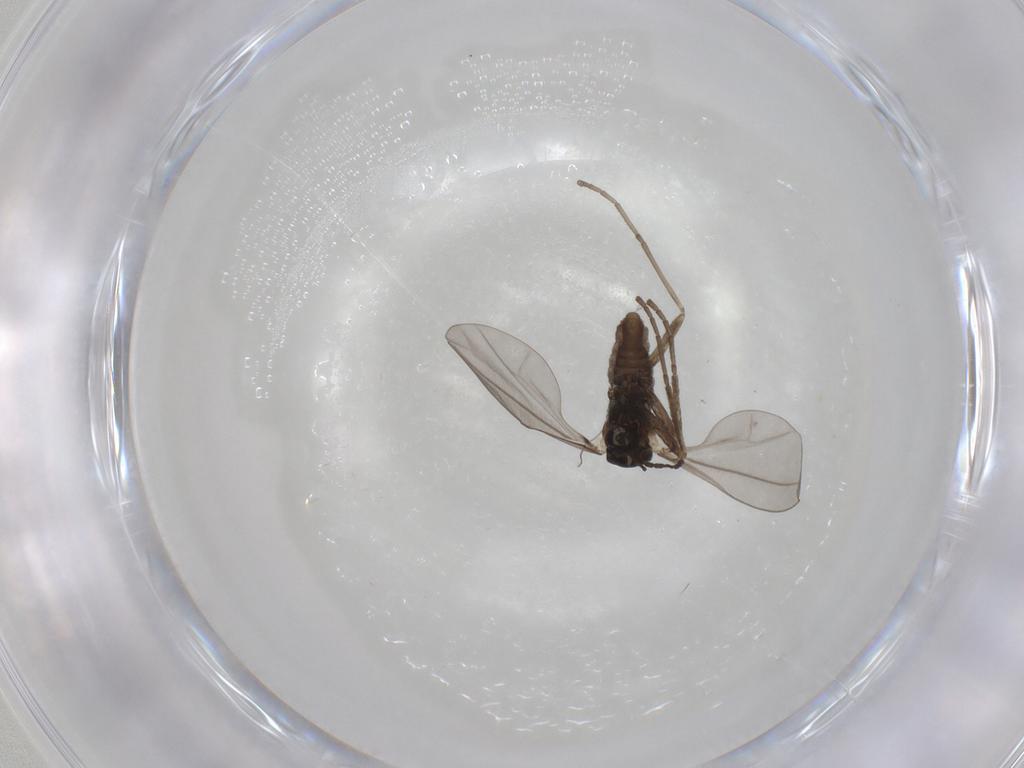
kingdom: Animalia
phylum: Arthropoda
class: Insecta
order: Diptera
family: Cecidomyiidae
